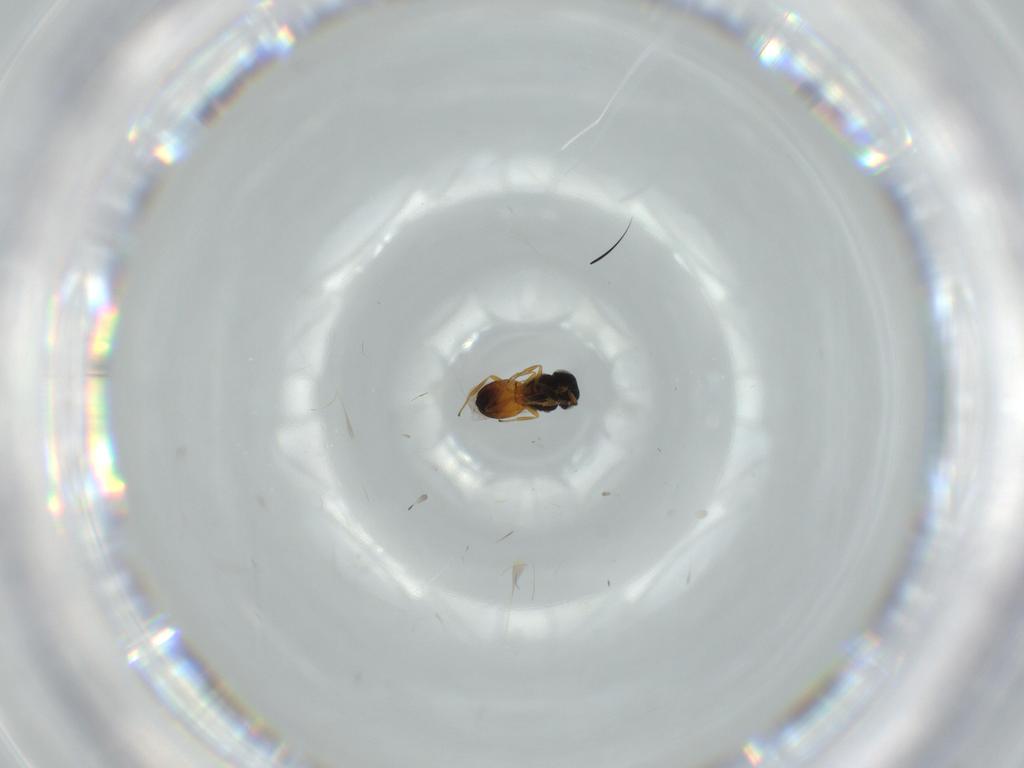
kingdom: Animalia
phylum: Arthropoda
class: Insecta
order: Hymenoptera
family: Scelionidae
